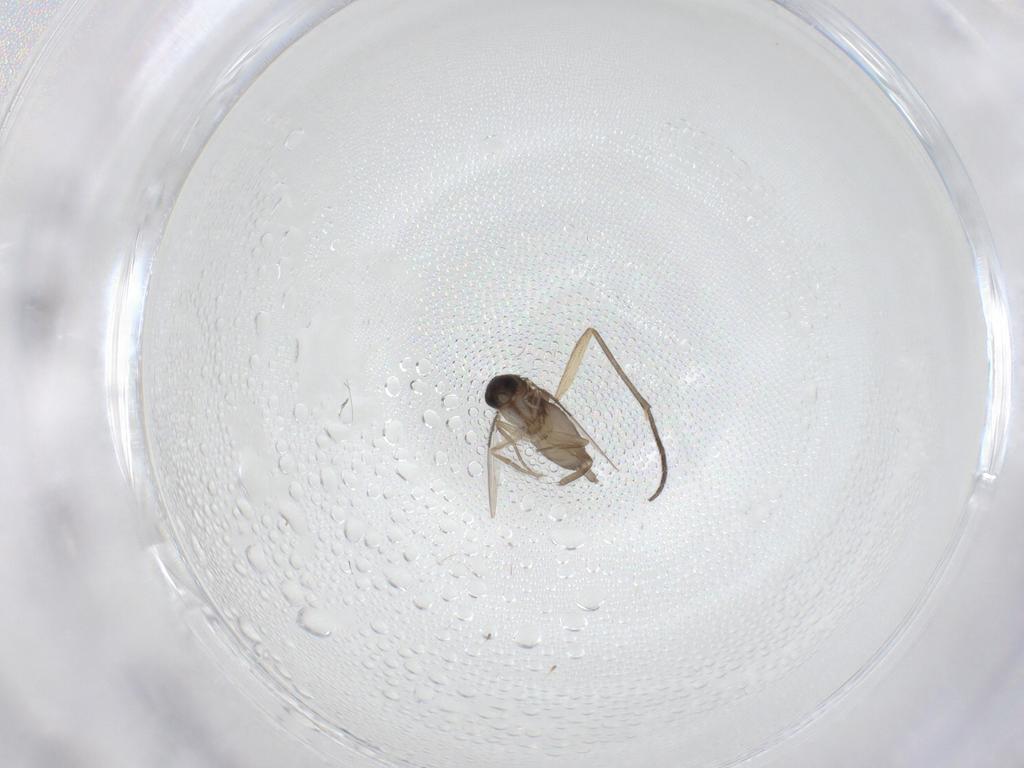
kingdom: Animalia
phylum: Arthropoda
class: Insecta
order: Diptera
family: Phoridae
